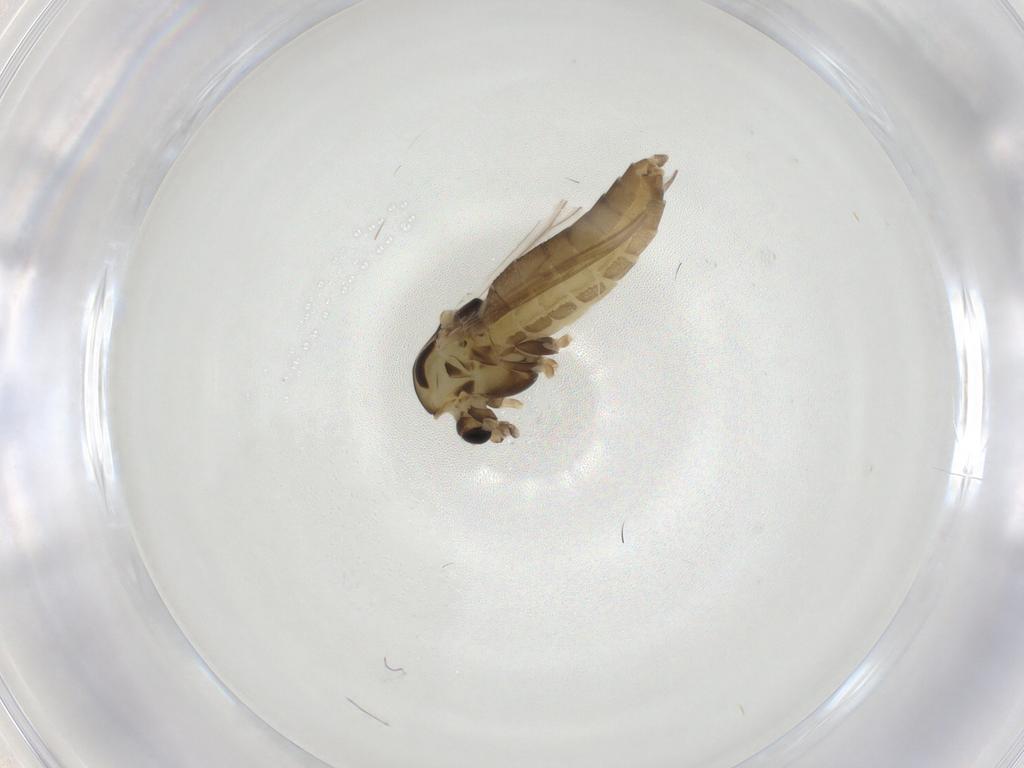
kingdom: Animalia
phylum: Arthropoda
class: Insecta
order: Diptera
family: Chironomidae
